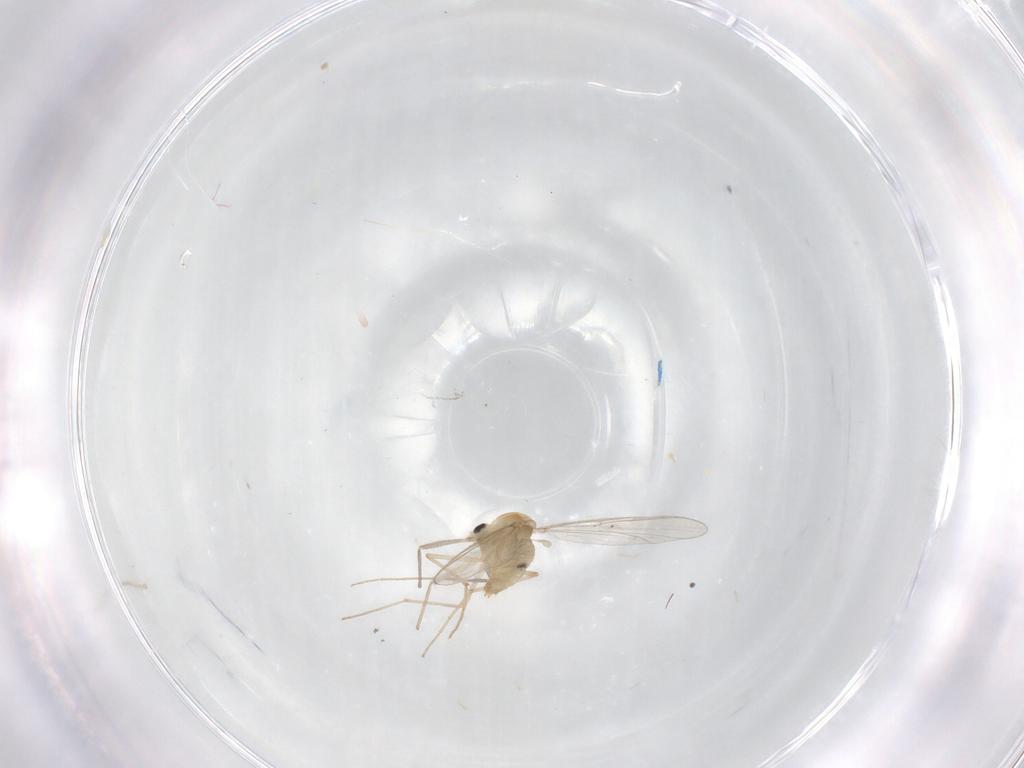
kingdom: Animalia
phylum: Arthropoda
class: Insecta
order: Diptera
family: Chironomidae
